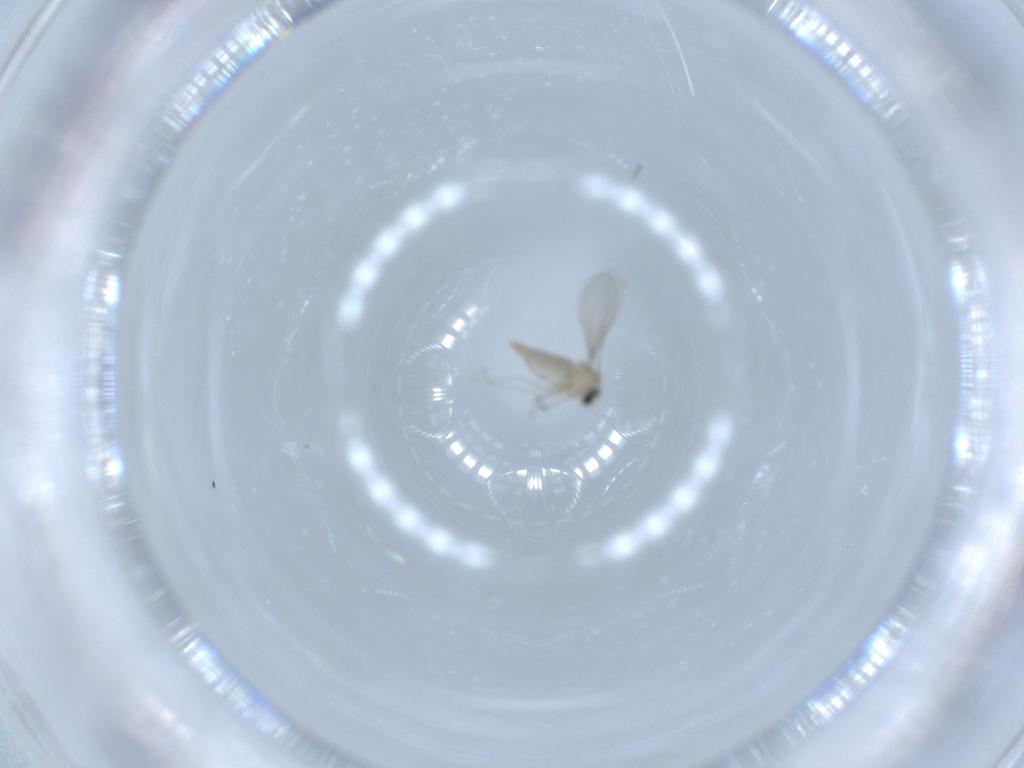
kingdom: Animalia
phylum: Arthropoda
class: Insecta
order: Diptera
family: Cecidomyiidae
